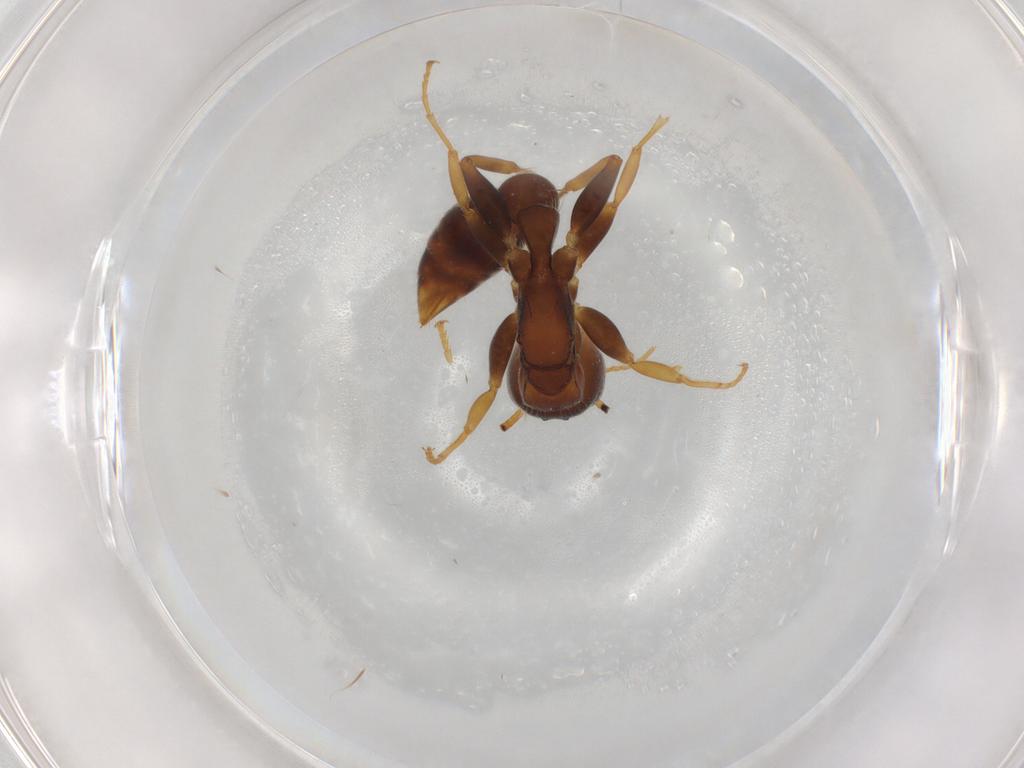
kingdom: Animalia
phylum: Arthropoda
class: Insecta
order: Hymenoptera
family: Formicidae
